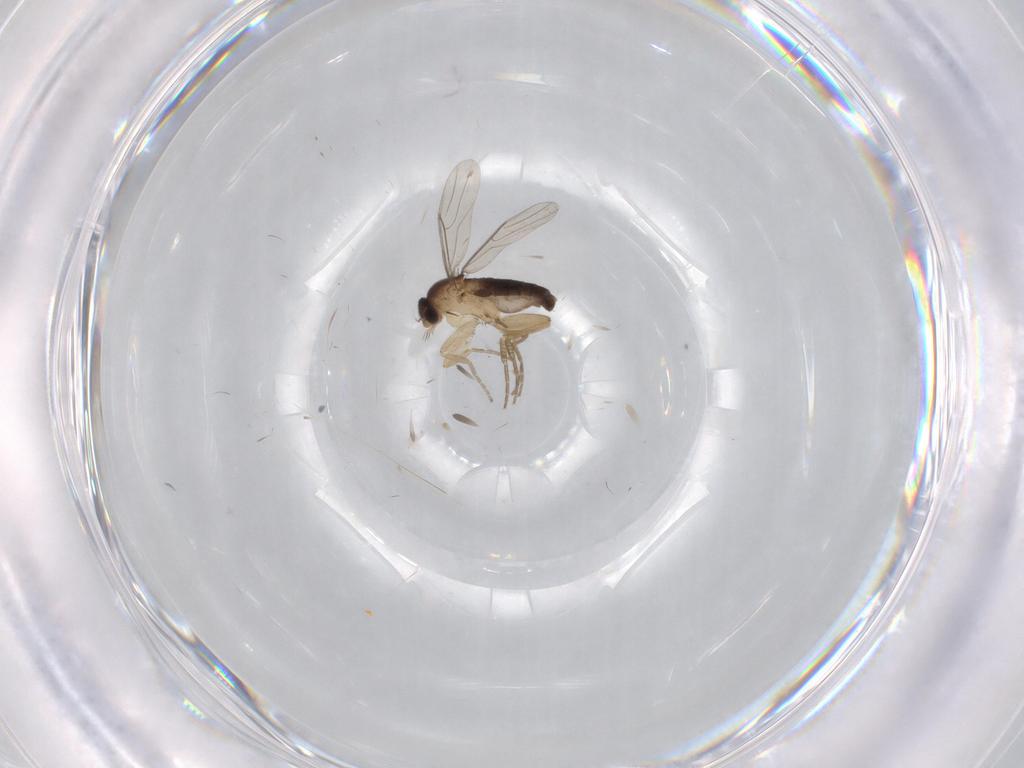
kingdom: Animalia
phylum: Arthropoda
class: Insecta
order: Diptera
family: Phoridae
